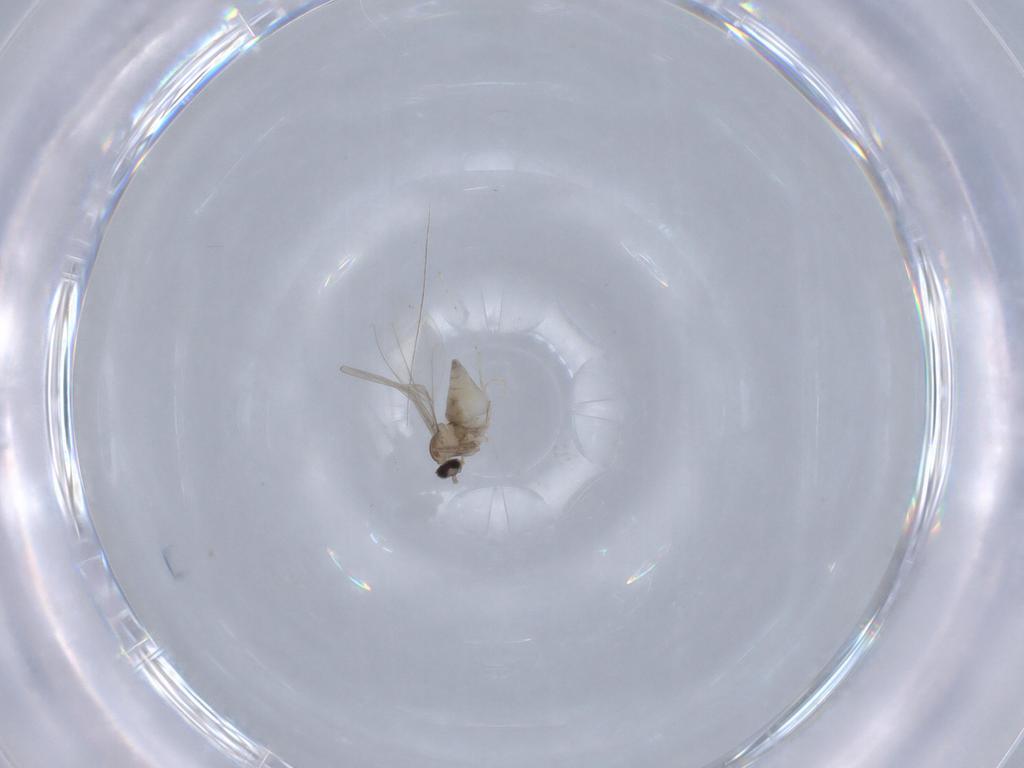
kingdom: Animalia
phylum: Arthropoda
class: Insecta
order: Diptera
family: Cecidomyiidae
